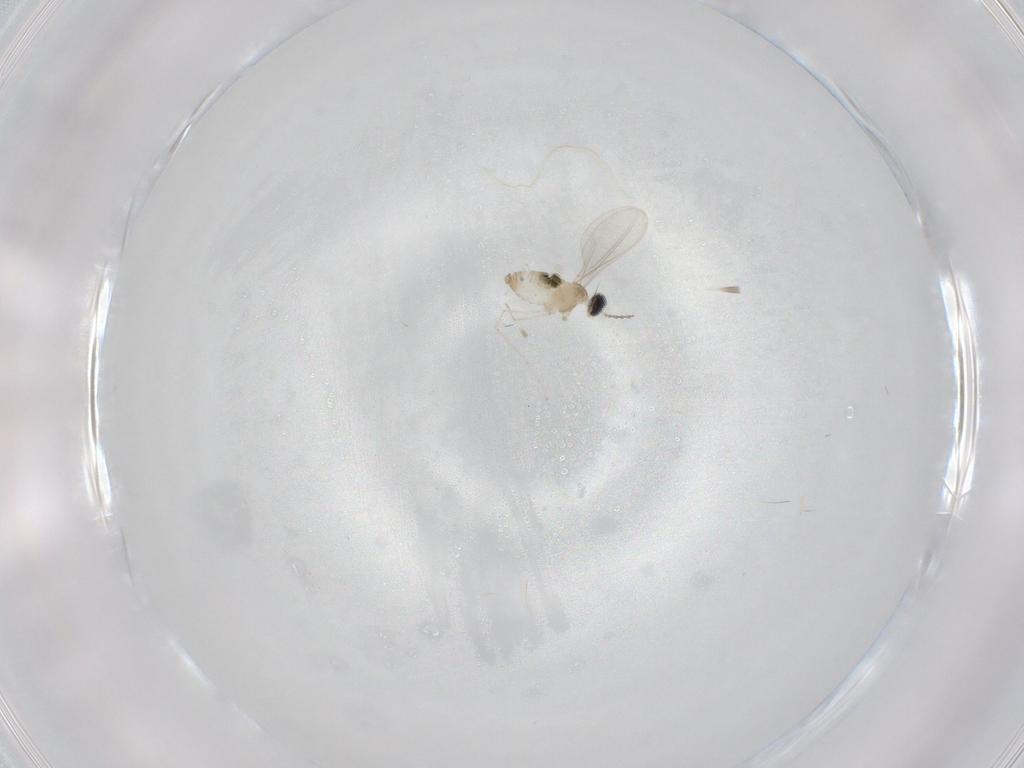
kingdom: Animalia
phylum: Arthropoda
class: Insecta
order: Diptera
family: Cecidomyiidae
